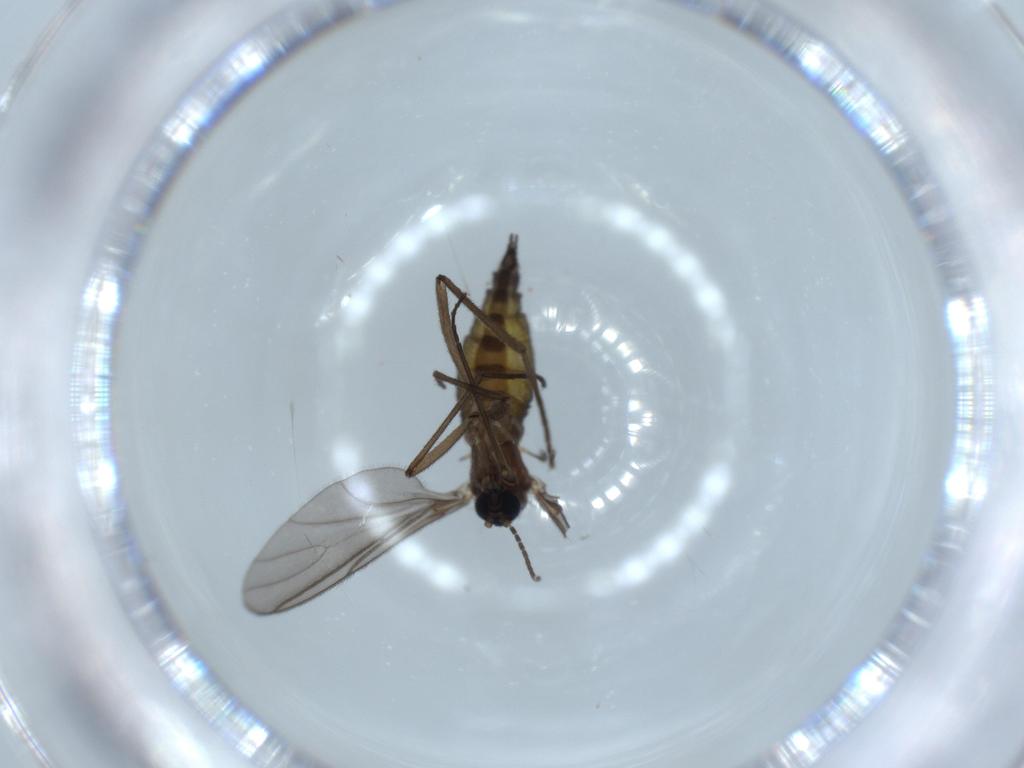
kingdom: Animalia
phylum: Arthropoda
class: Insecta
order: Diptera
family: Sciaridae
